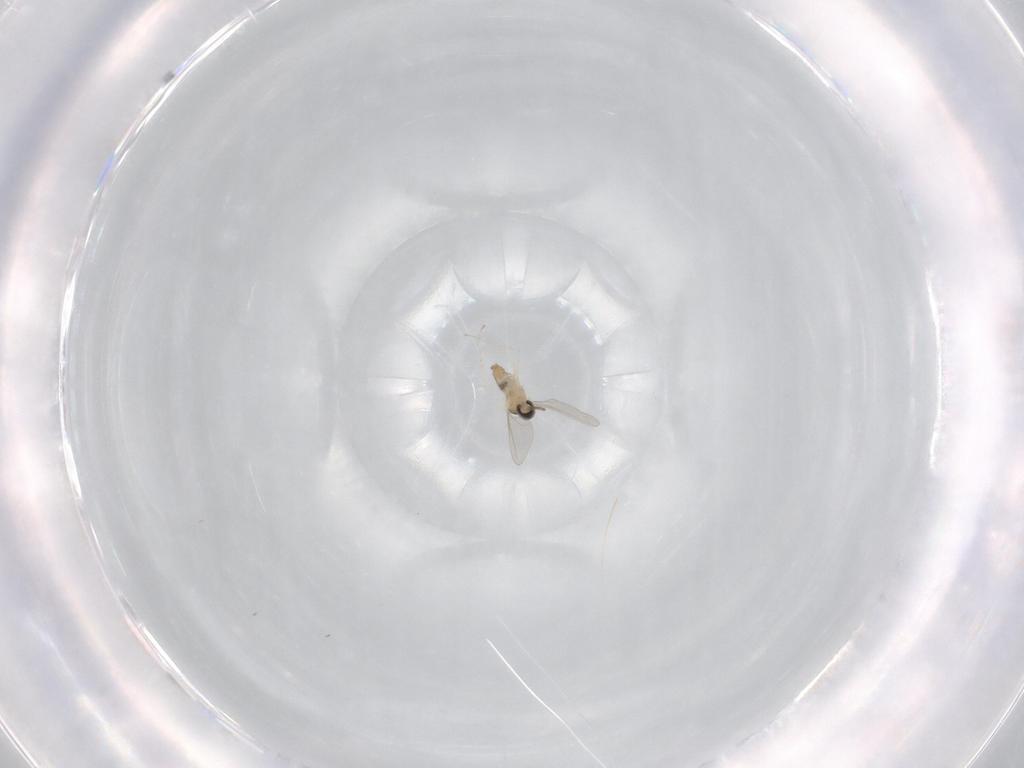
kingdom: Animalia
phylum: Arthropoda
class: Insecta
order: Diptera
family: Cecidomyiidae
